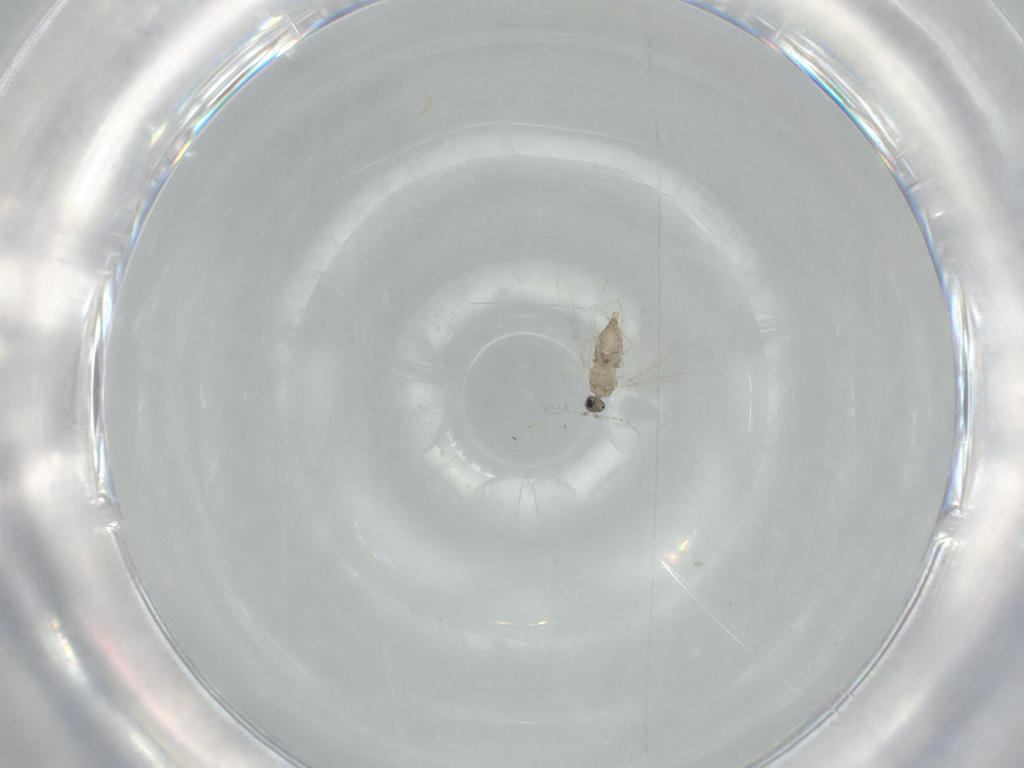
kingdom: Animalia
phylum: Arthropoda
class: Insecta
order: Diptera
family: Cecidomyiidae
